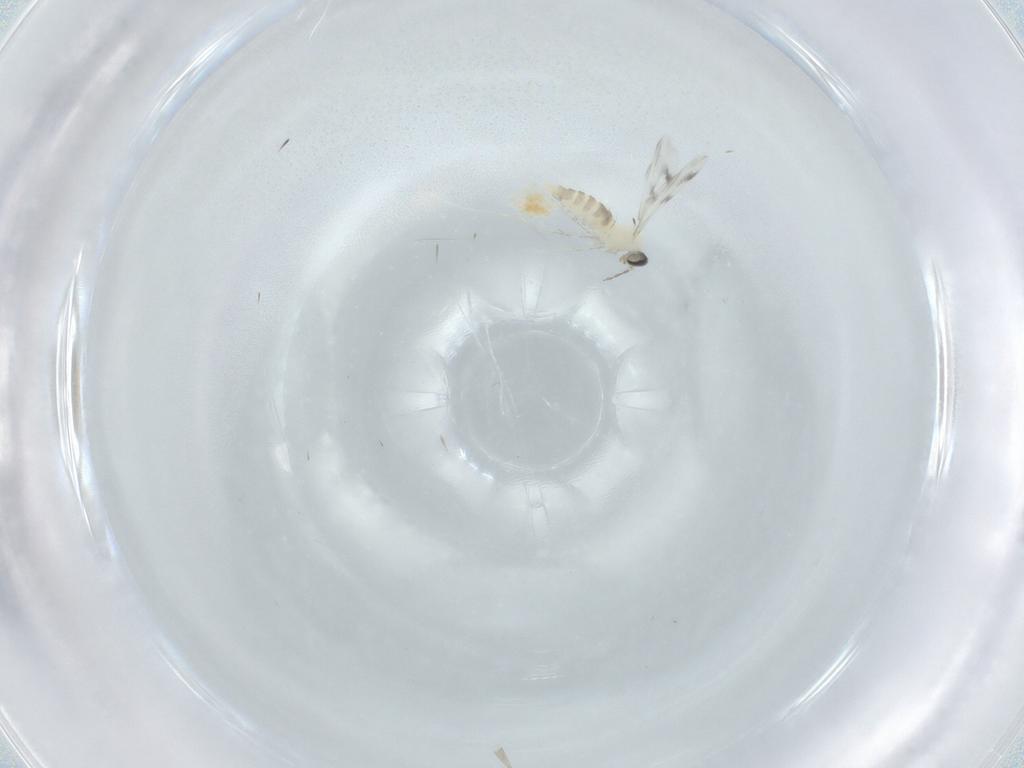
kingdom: Animalia
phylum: Arthropoda
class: Insecta
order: Diptera
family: Cecidomyiidae
